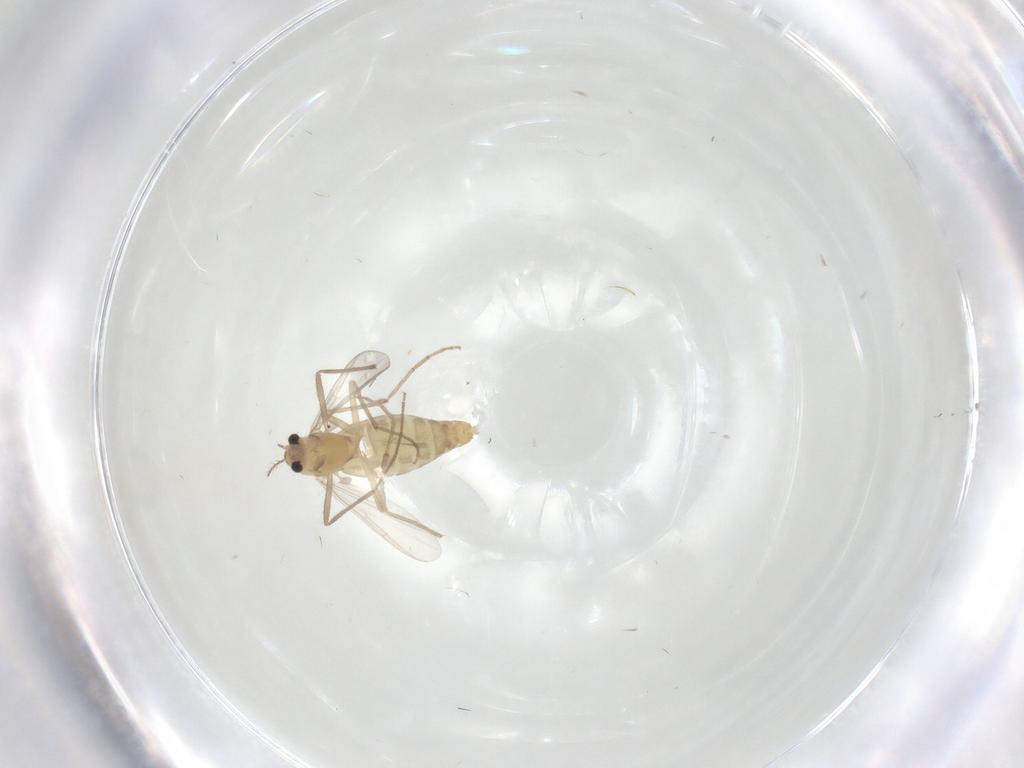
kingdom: Animalia
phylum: Arthropoda
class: Insecta
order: Diptera
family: Chironomidae
